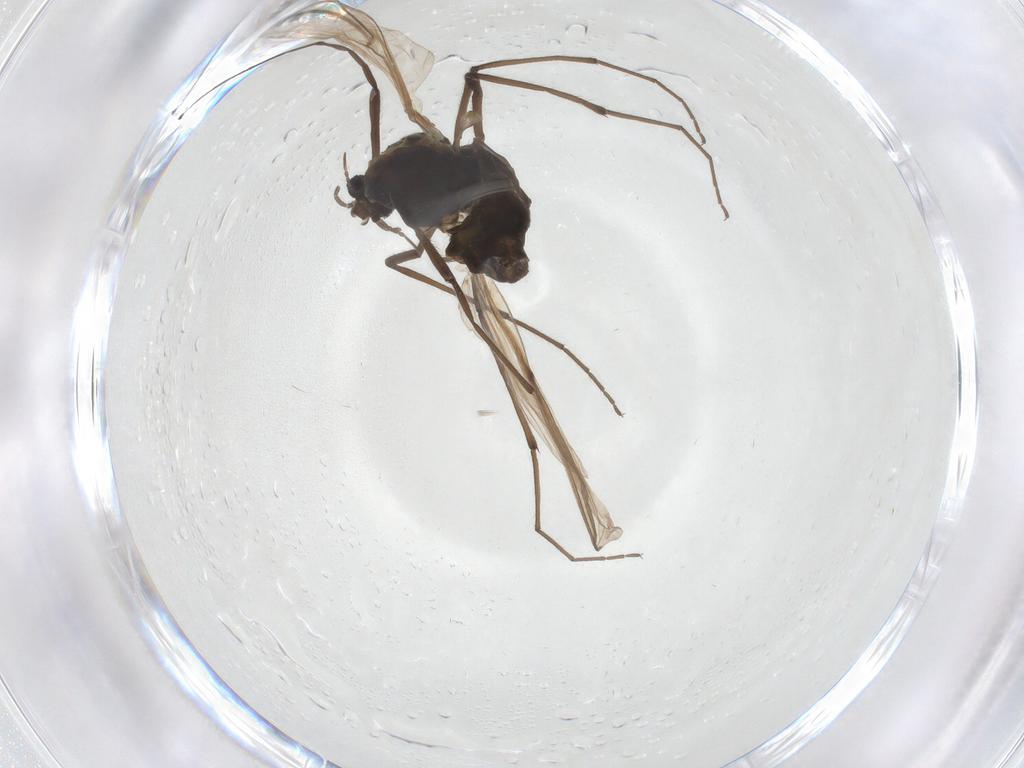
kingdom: Animalia
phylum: Arthropoda
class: Insecta
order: Diptera
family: Chironomidae
